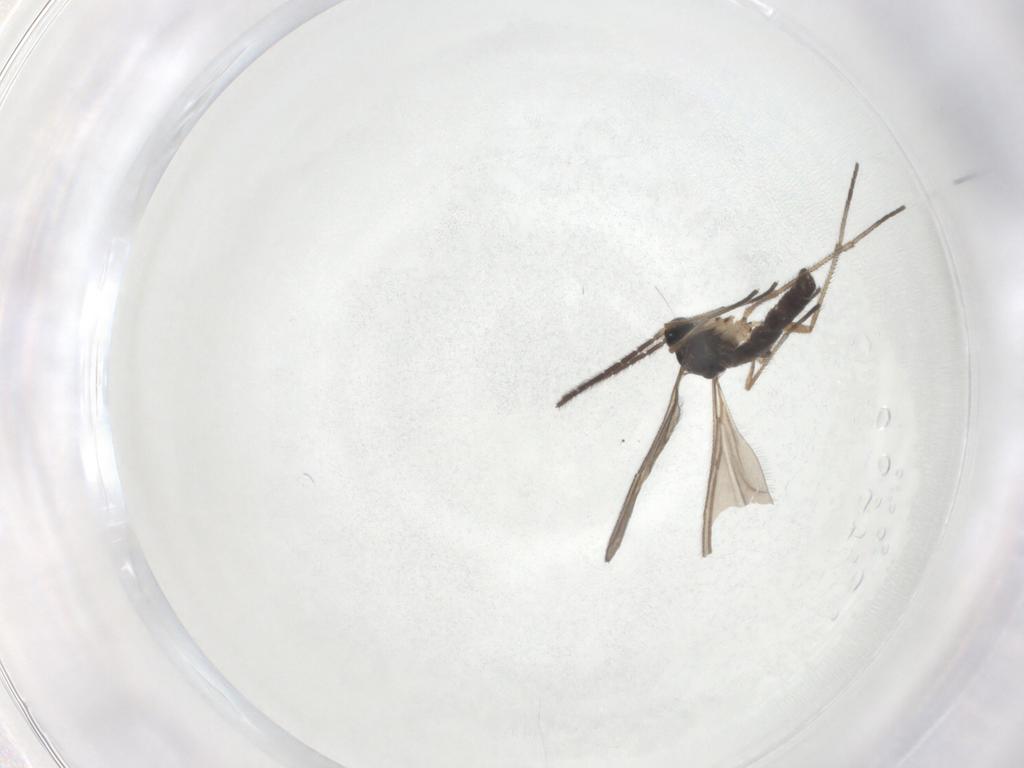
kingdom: Animalia
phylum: Arthropoda
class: Insecta
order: Diptera
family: Sciaridae
